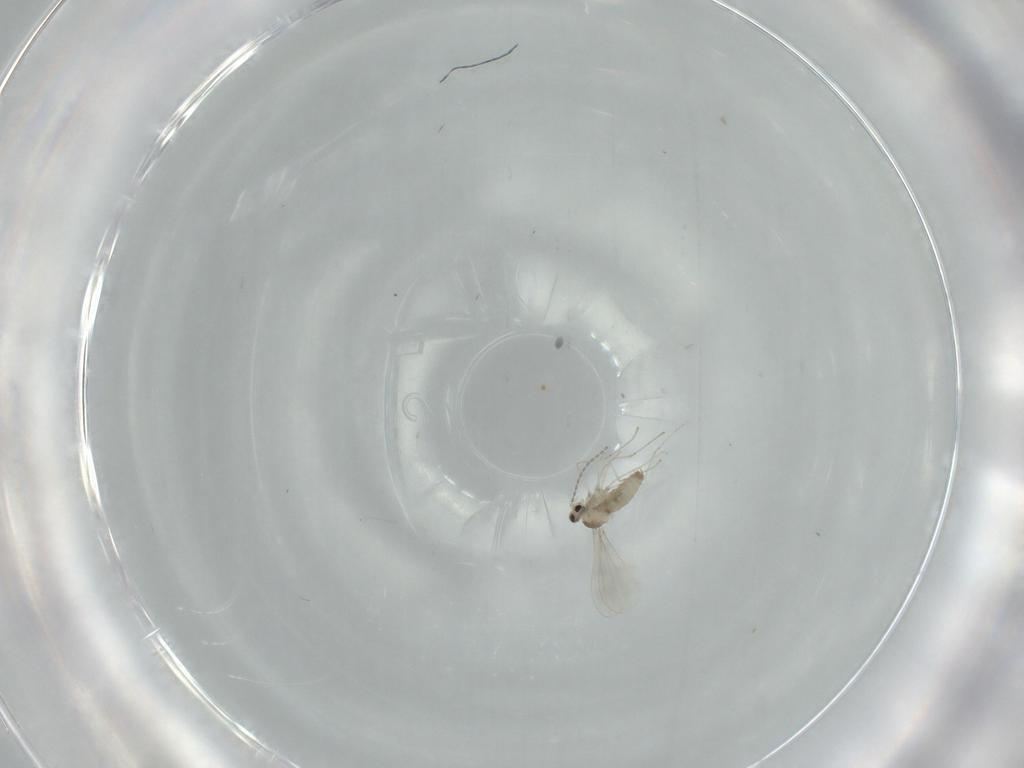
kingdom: Animalia
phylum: Arthropoda
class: Insecta
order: Diptera
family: Cecidomyiidae
